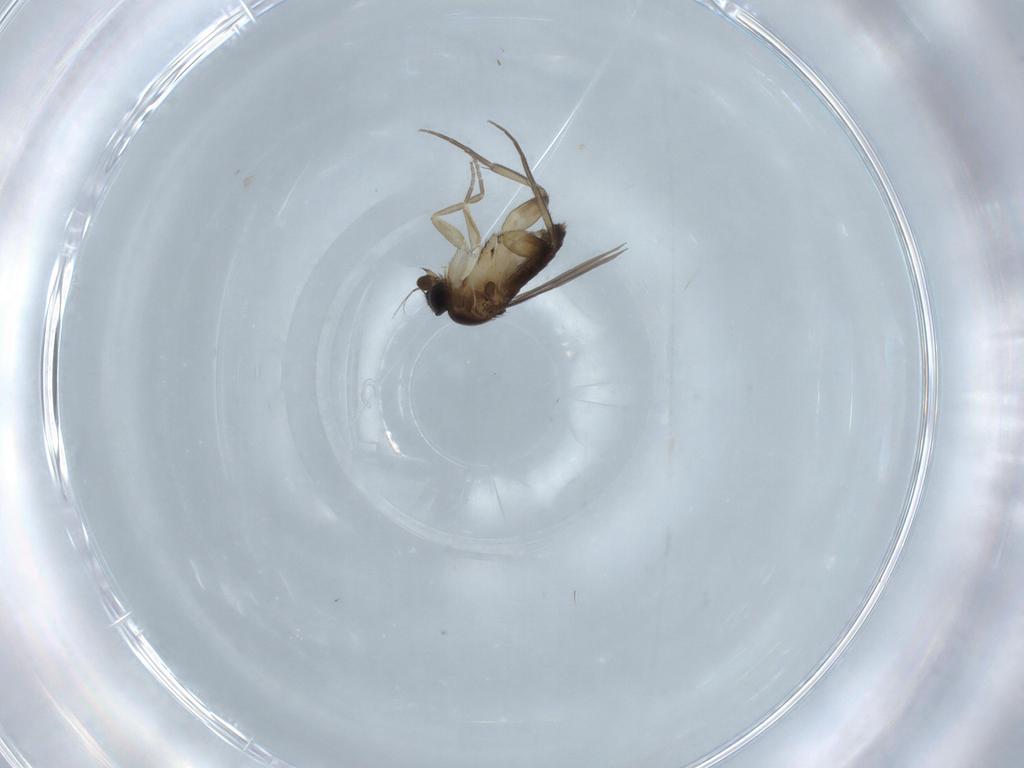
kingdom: Animalia
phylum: Arthropoda
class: Insecta
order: Diptera
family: Phoridae
